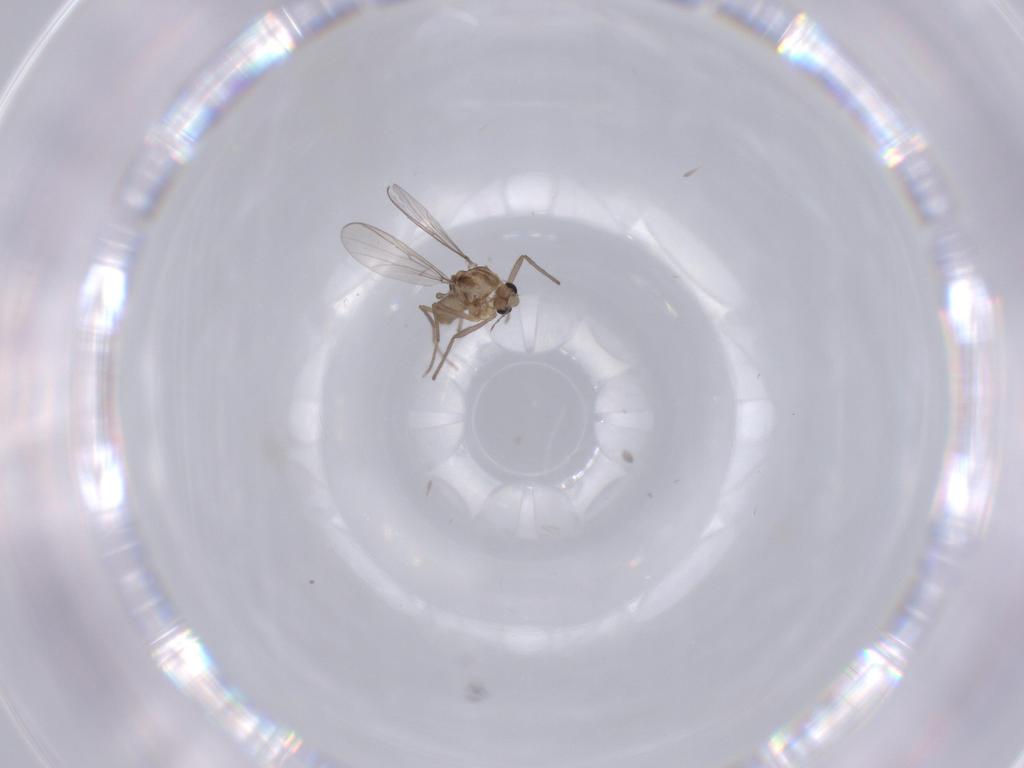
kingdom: Animalia
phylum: Arthropoda
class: Insecta
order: Diptera
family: Chironomidae
